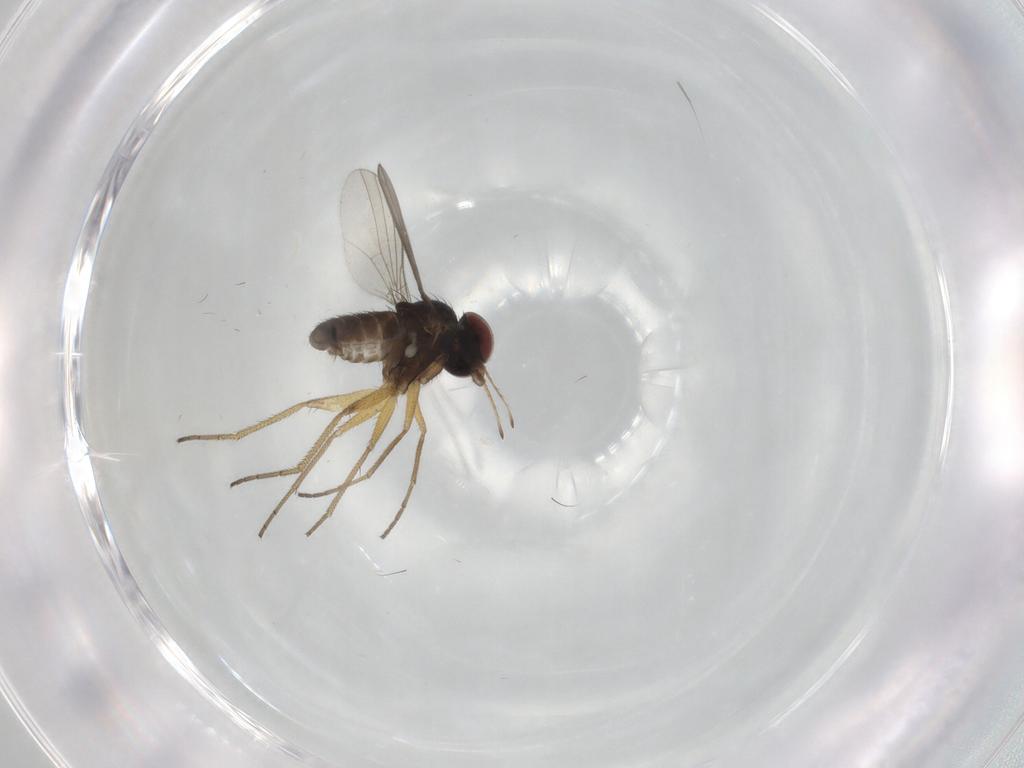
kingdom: Animalia
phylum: Arthropoda
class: Insecta
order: Diptera
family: Dolichopodidae
